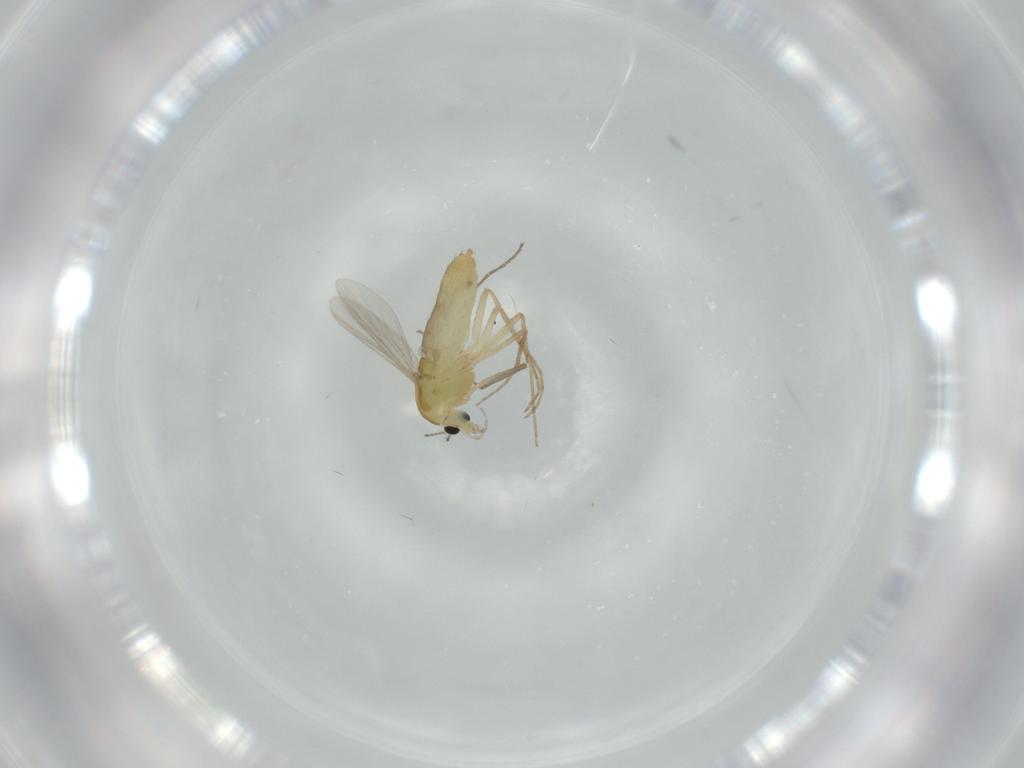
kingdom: Animalia
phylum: Arthropoda
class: Insecta
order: Diptera
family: Chironomidae
